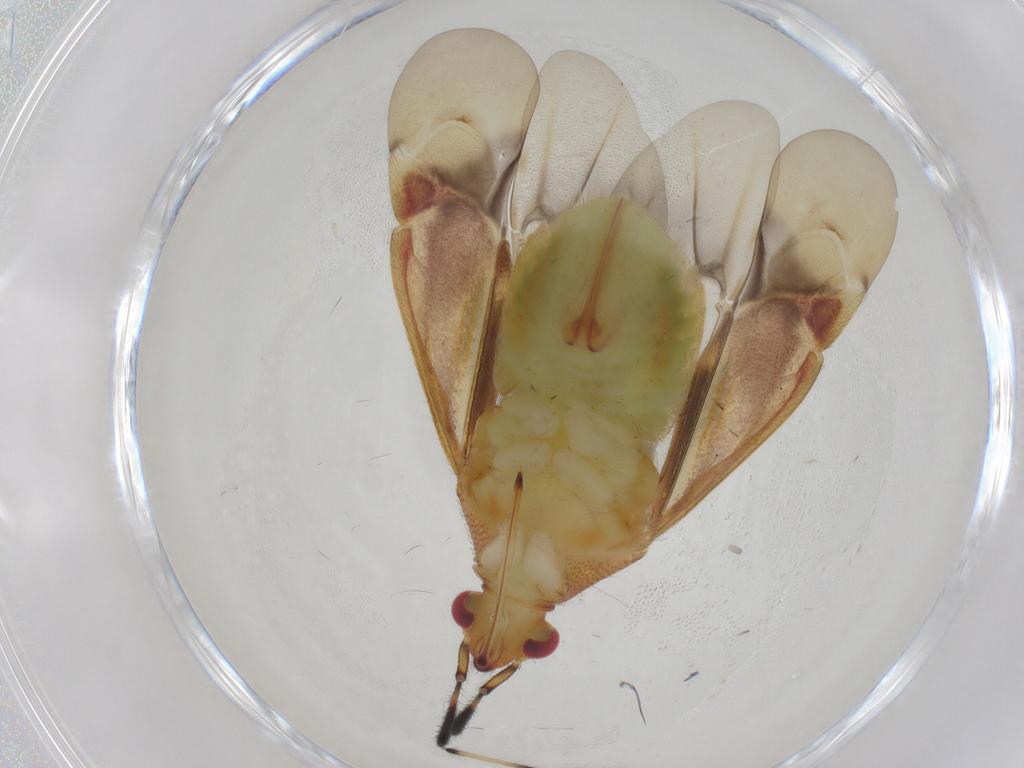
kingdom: Animalia
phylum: Arthropoda
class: Insecta
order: Hemiptera
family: Miridae
